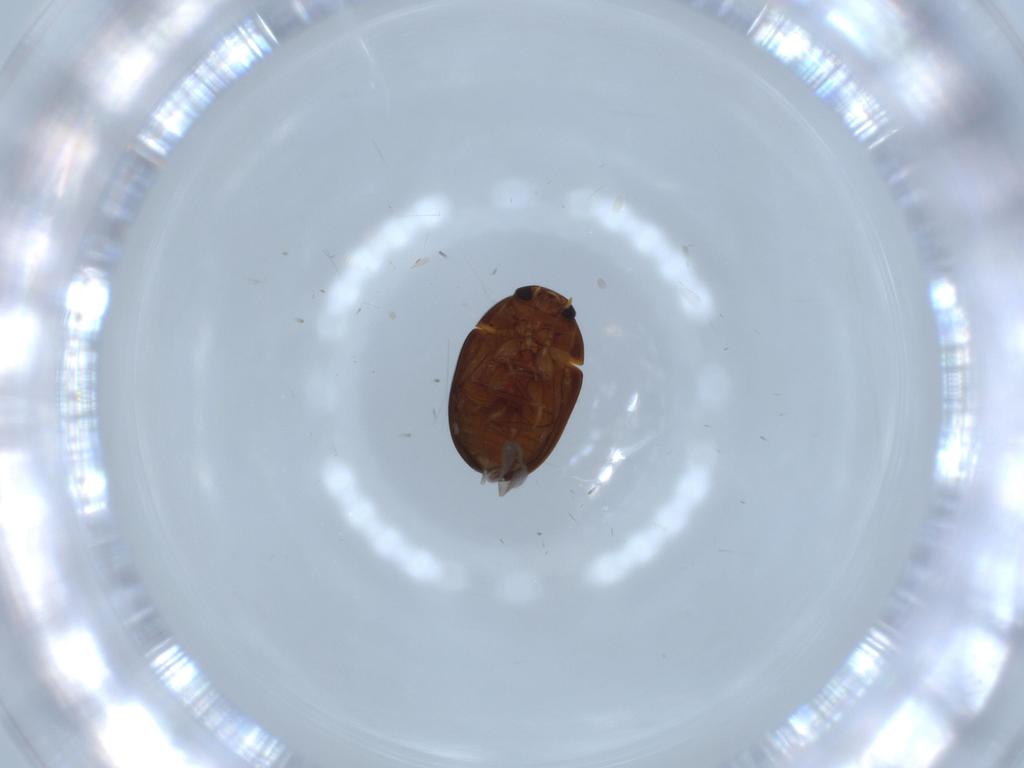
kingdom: Animalia
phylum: Arthropoda
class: Insecta
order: Coleoptera
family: Phalacridae
